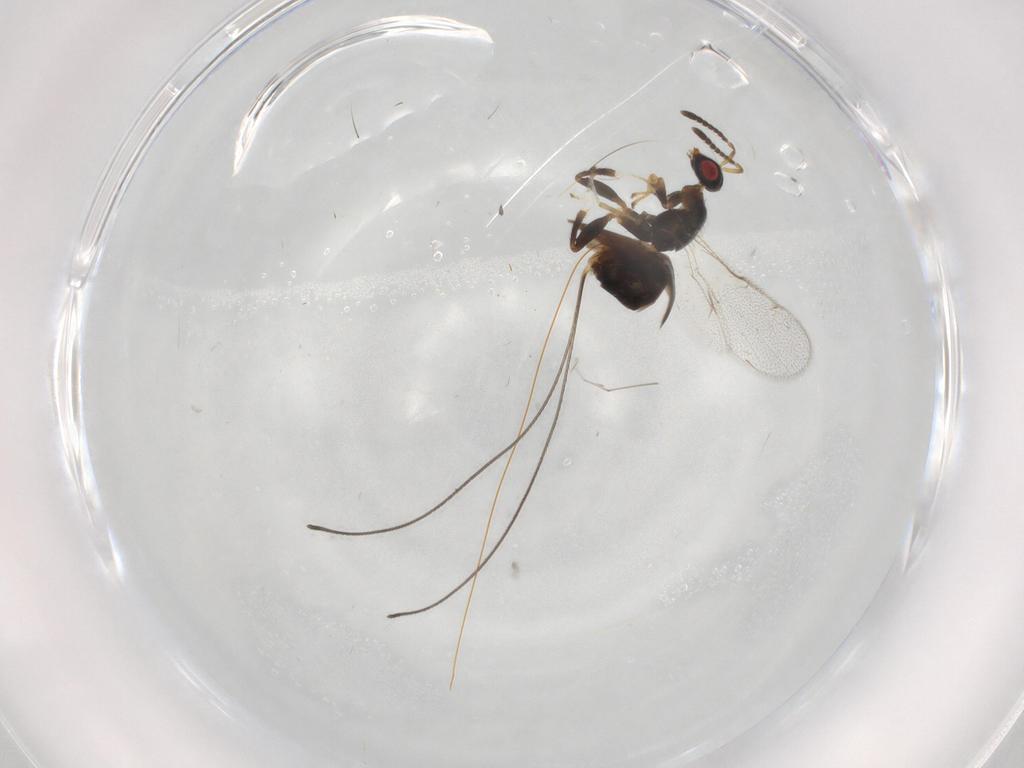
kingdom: Animalia
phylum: Arthropoda
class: Insecta
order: Hymenoptera
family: Torymidae
